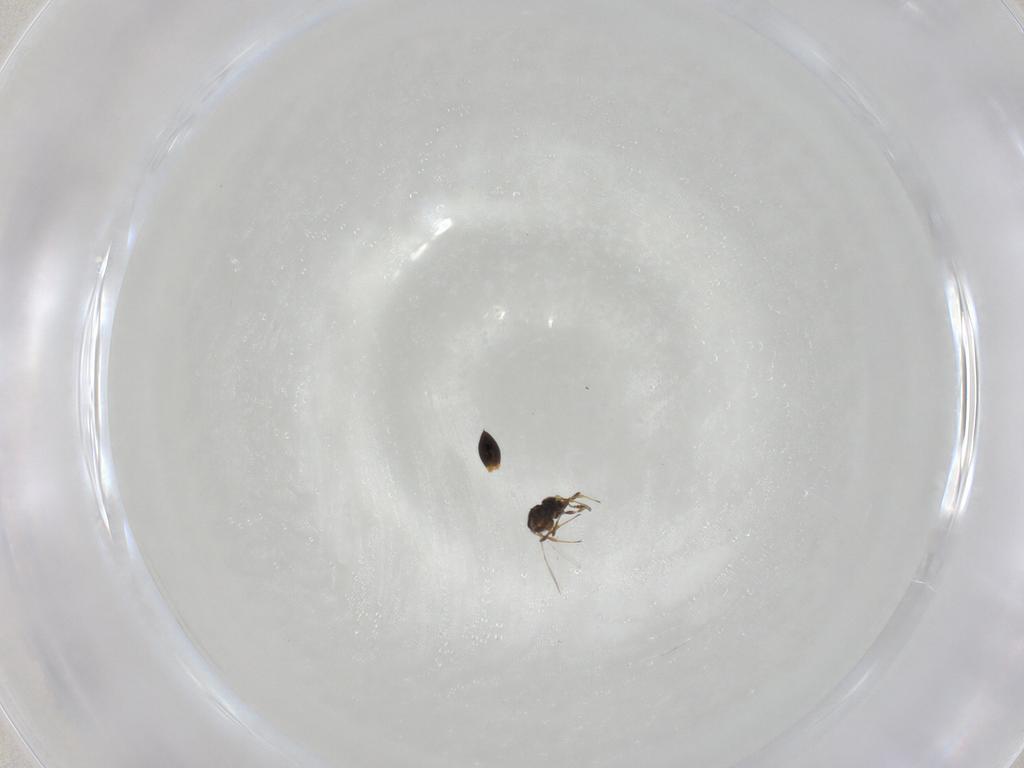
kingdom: Animalia
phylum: Arthropoda
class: Insecta
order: Hymenoptera
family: Platygastridae
